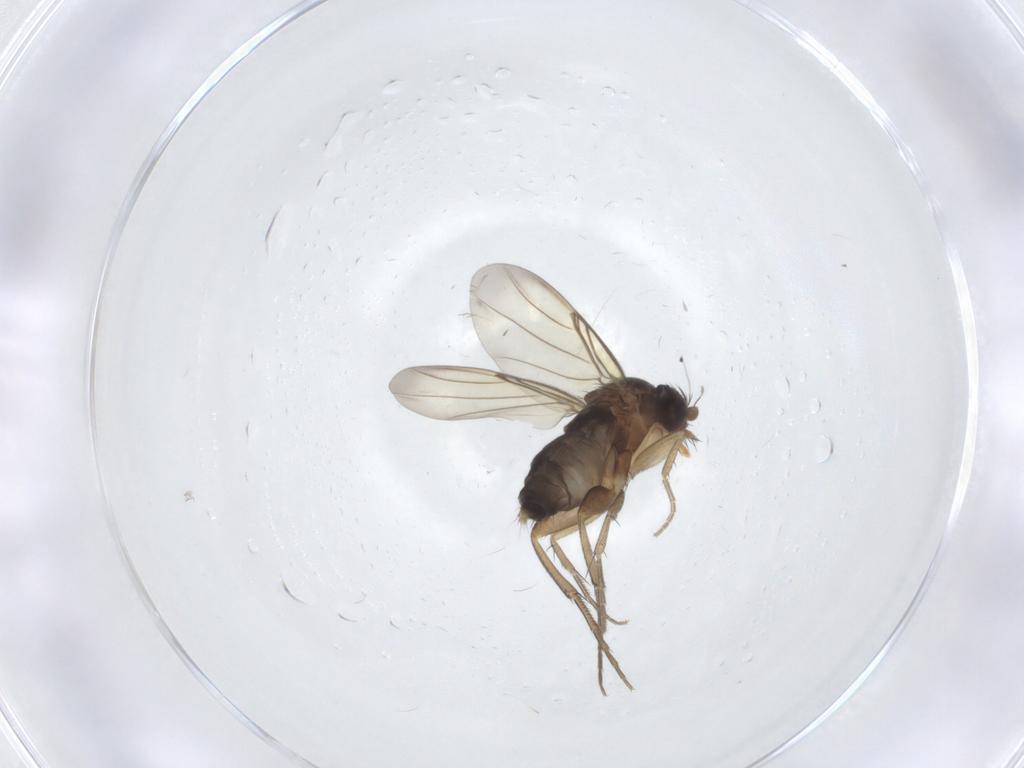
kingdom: Animalia
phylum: Arthropoda
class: Insecta
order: Diptera
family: Phoridae
